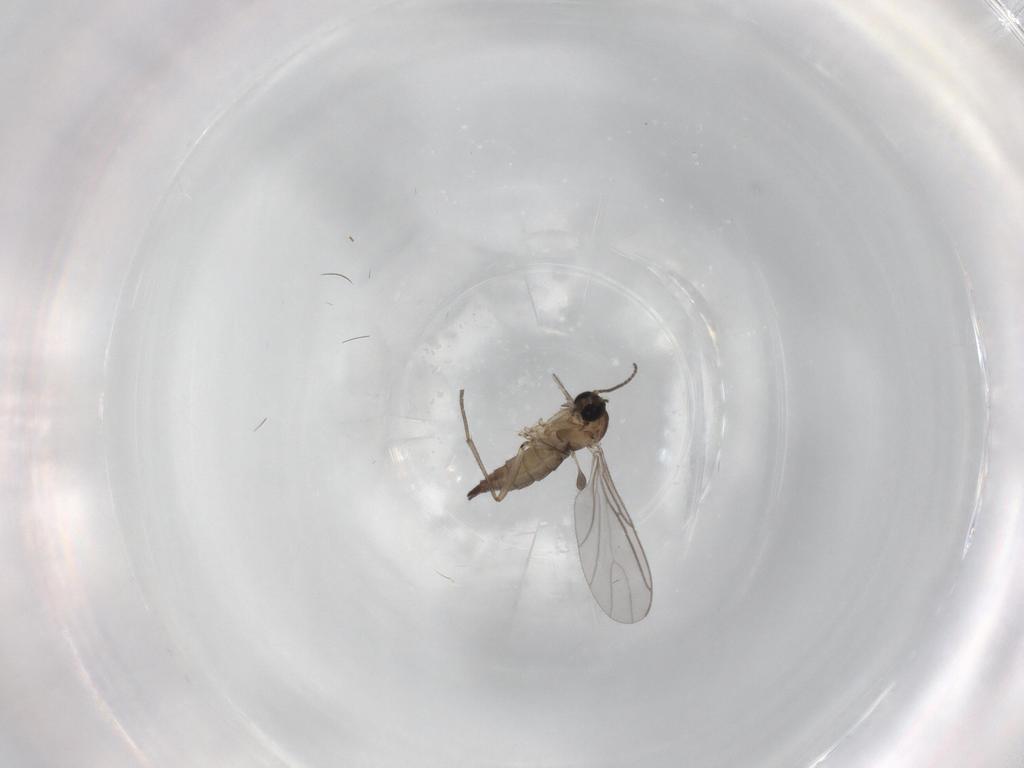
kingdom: Animalia
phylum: Arthropoda
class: Insecta
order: Diptera
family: Sciaridae
